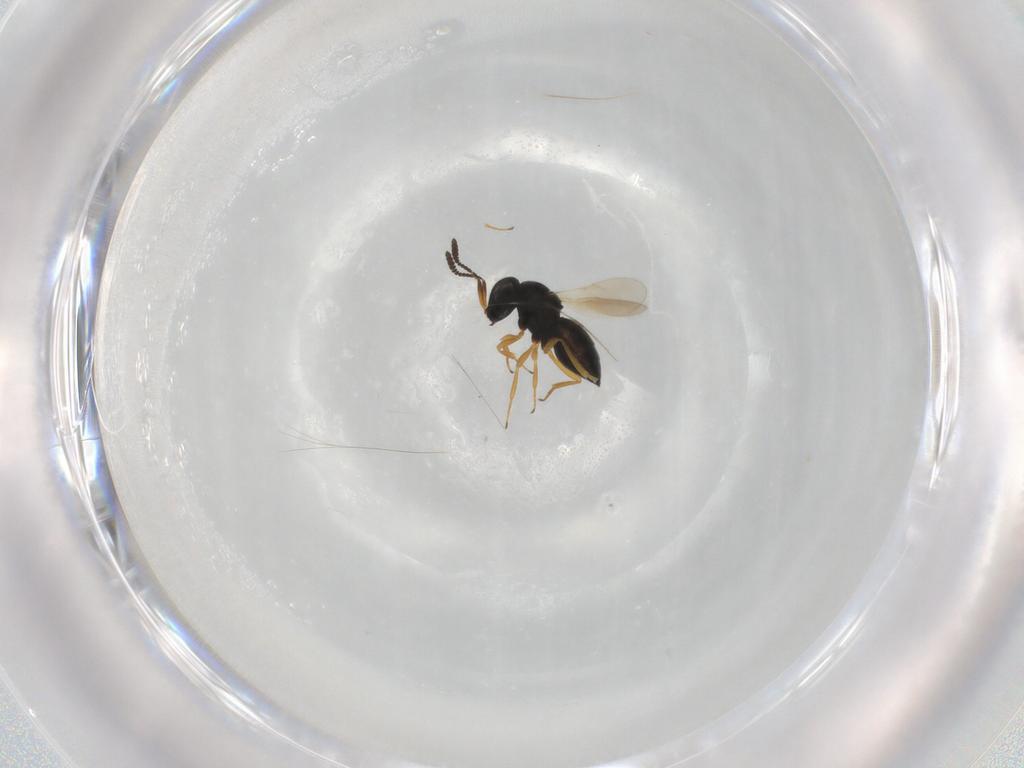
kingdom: Animalia
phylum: Arthropoda
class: Insecta
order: Hymenoptera
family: Scelionidae
